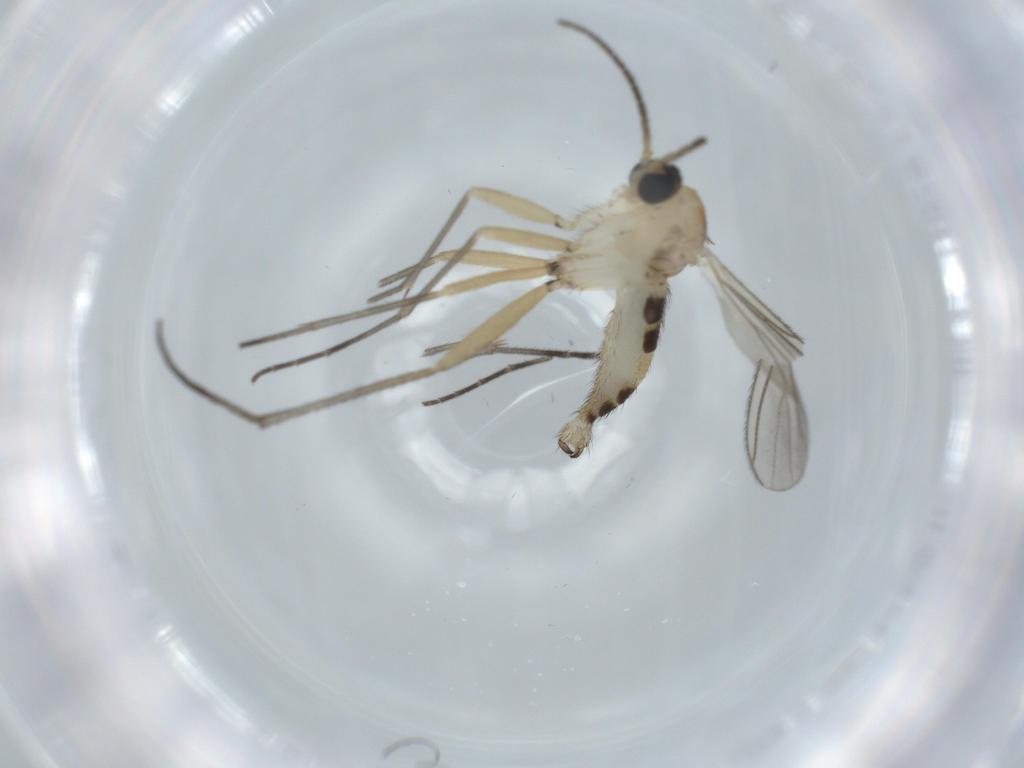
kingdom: Animalia
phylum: Arthropoda
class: Insecta
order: Diptera
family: Sciaridae
